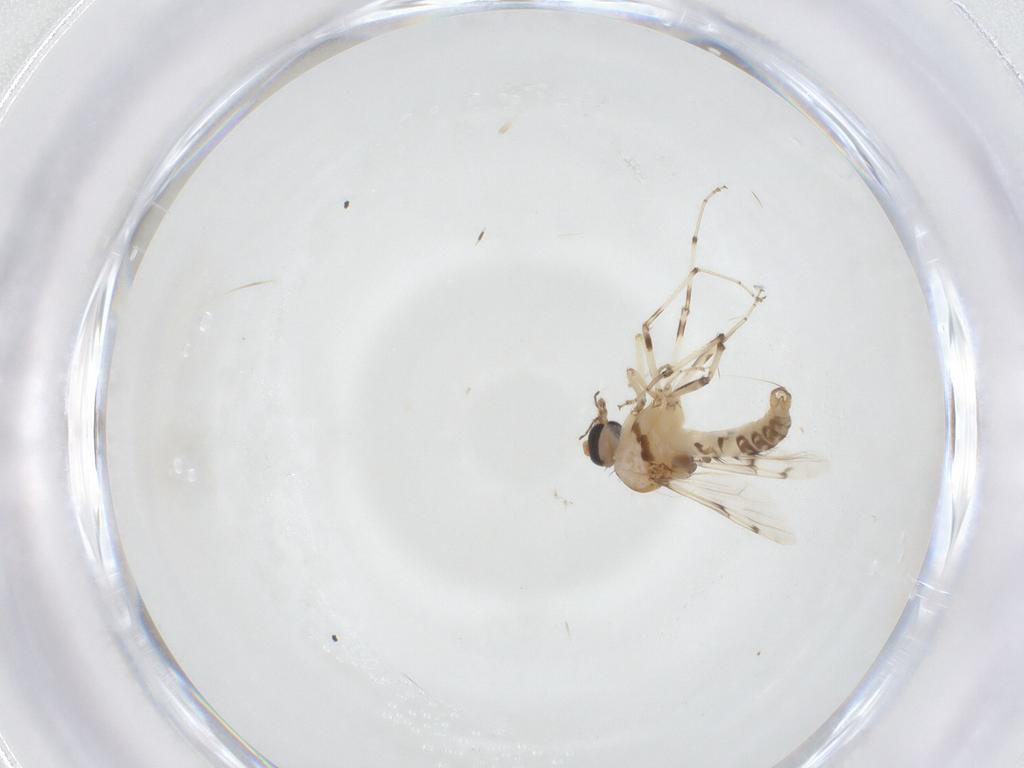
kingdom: Animalia
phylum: Arthropoda
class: Insecta
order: Diptera
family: Ceratopogonidae
